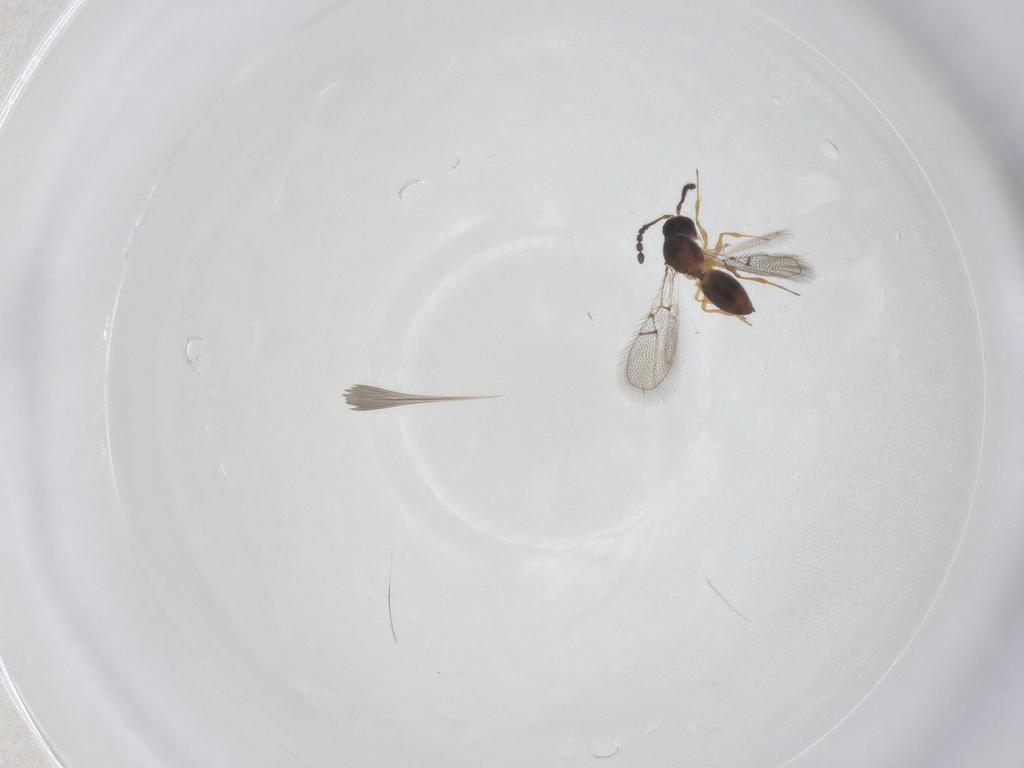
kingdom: Animalia
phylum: Arthropoda
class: Insecta
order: Hymenoptera
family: Figitidae
